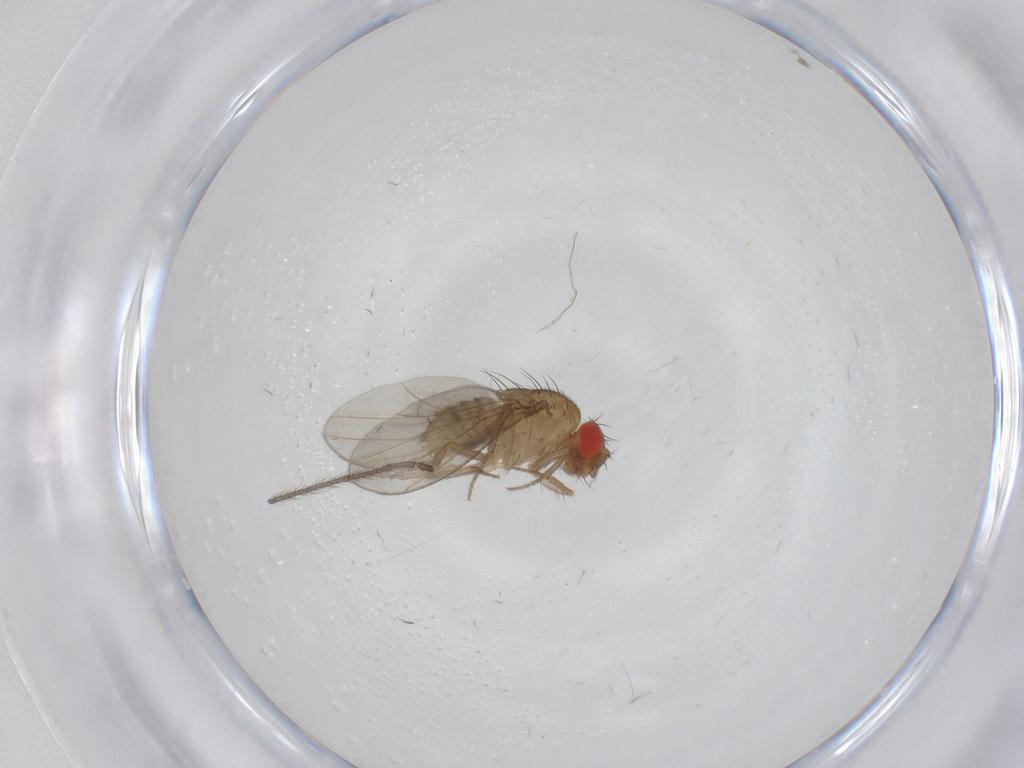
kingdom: Animalia
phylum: Arthropoda
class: Insecta
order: Diptera
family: Drosophilidae
